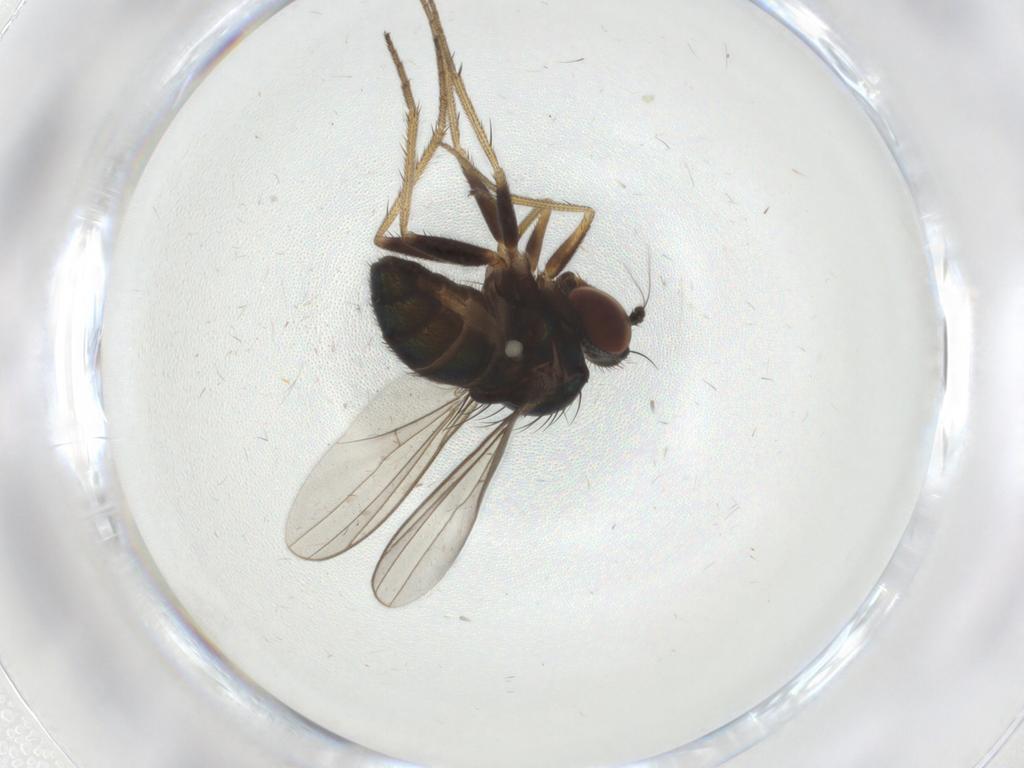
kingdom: Animalia
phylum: Arthropoda
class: Insecta
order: Diptera
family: Dolichopodidae
